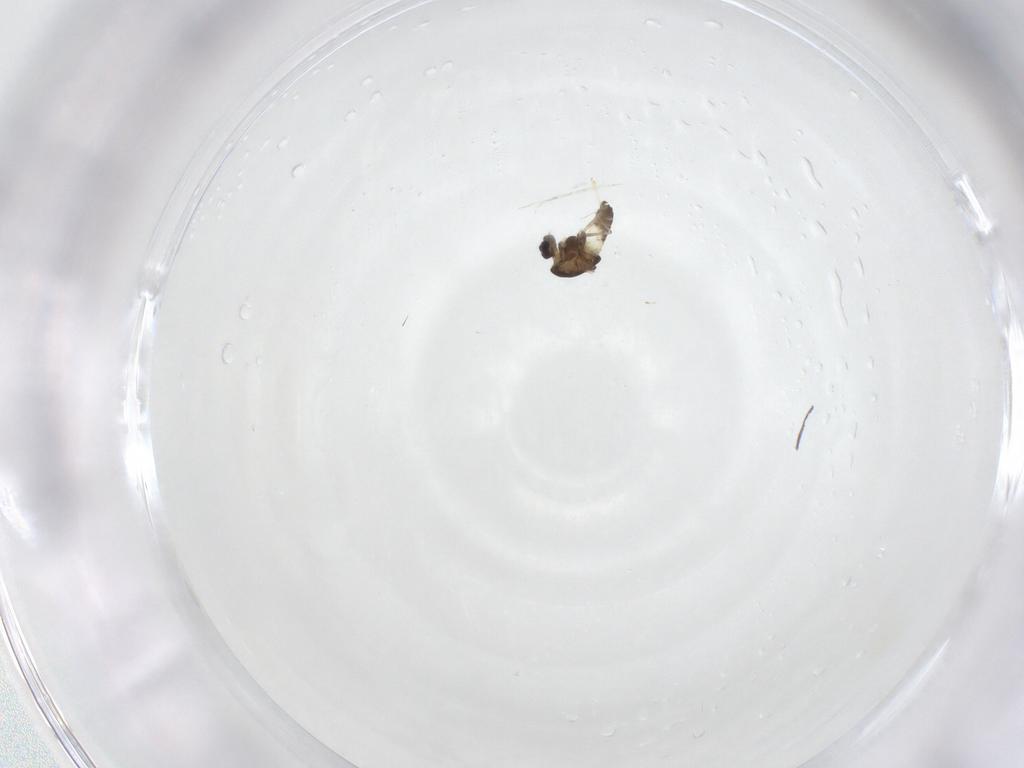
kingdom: Animalia
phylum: Arthropoda
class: Insecta
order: Diptera
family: Chironomidae
